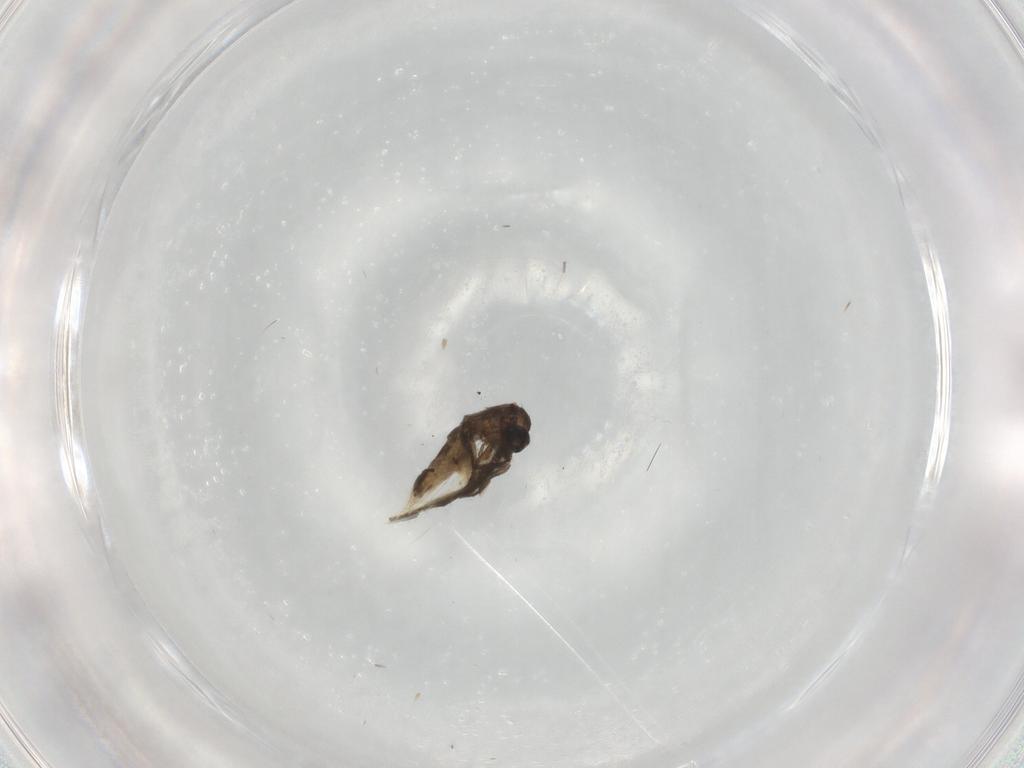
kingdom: Animalia
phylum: Arthropoda
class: Insecta
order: Diptera
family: Sciaridae
